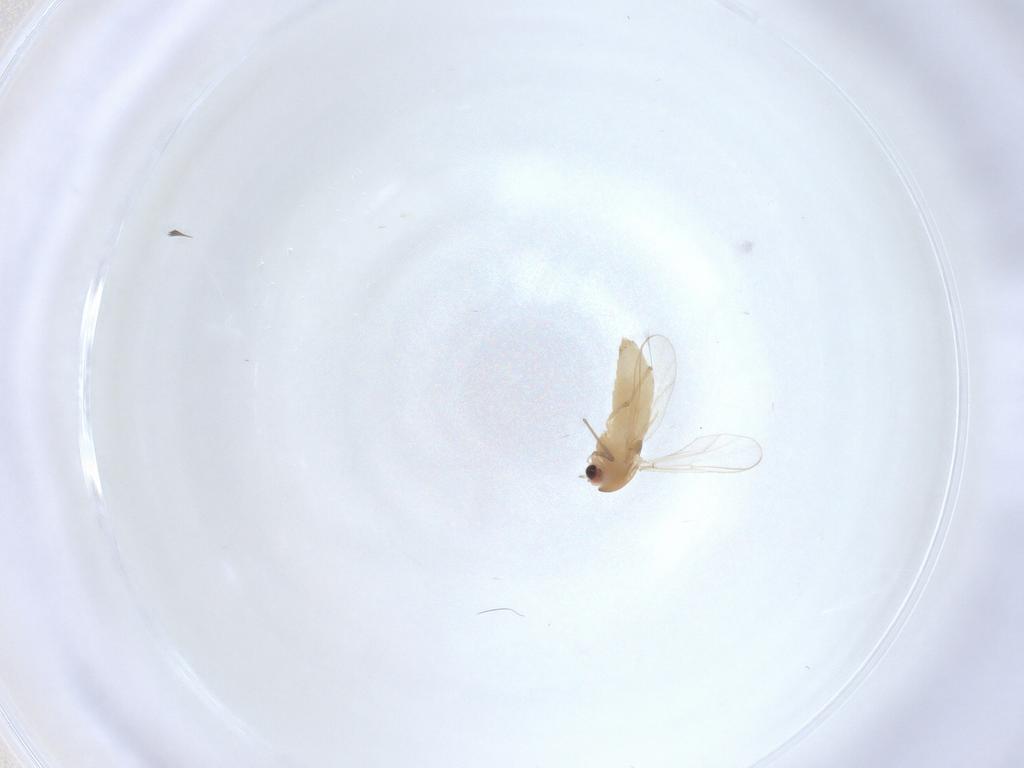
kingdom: Animalia
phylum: Arthropoda
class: Insecta
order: Diptera
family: Chironomidae
